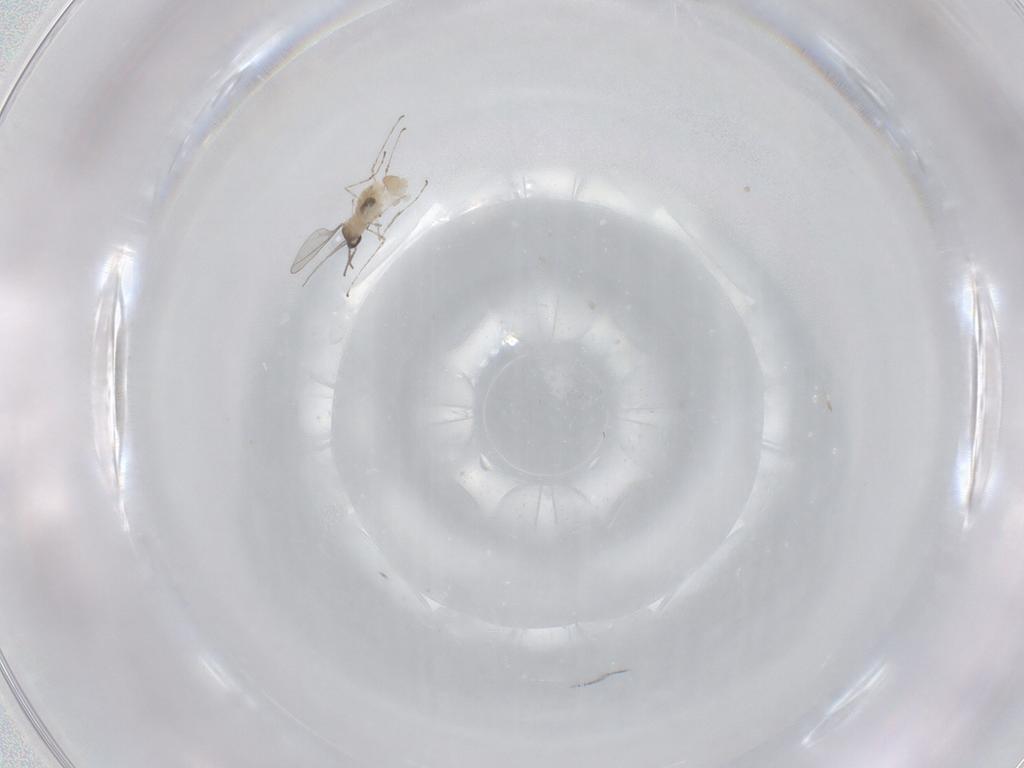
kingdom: Animalia
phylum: Arthropoda
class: Insecta
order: Diptera
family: Cecidomyiidae
